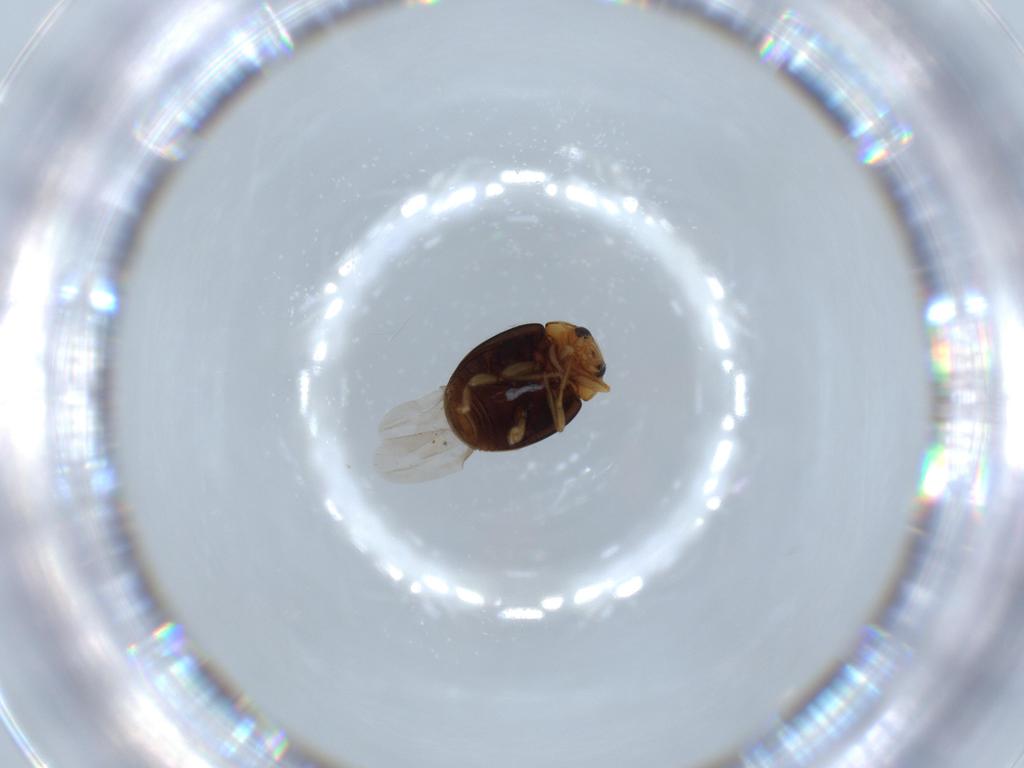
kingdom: Animalia
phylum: Arthropoda
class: Insecta
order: Coleoptera
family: Coccinellidae
